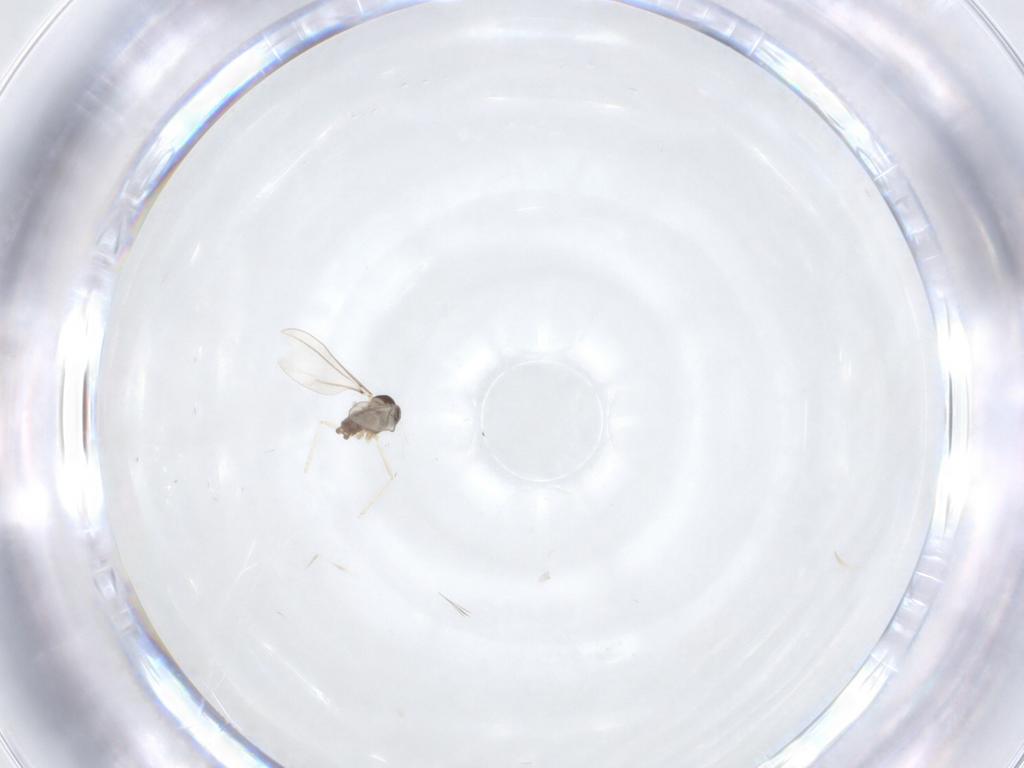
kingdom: Animalia
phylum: Arthropoda
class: Insecta
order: Diptera
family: Cecidomyiidae
